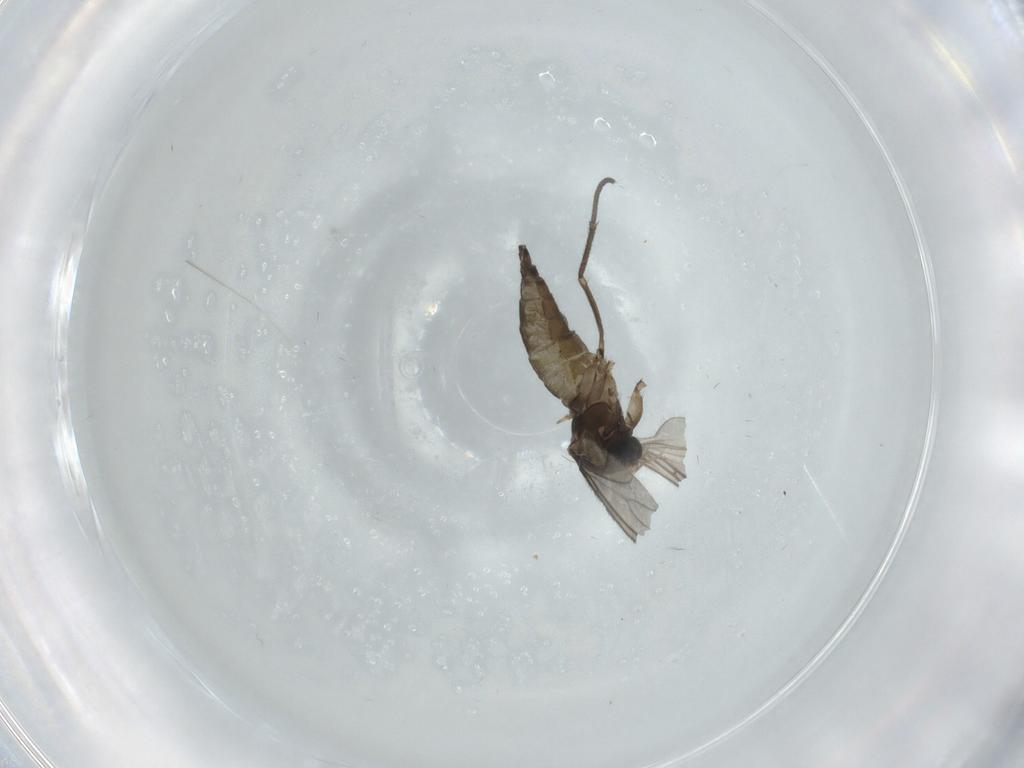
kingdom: Animalia
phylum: Arthropoda
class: Insecta
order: Diptera
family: Sciaridae
